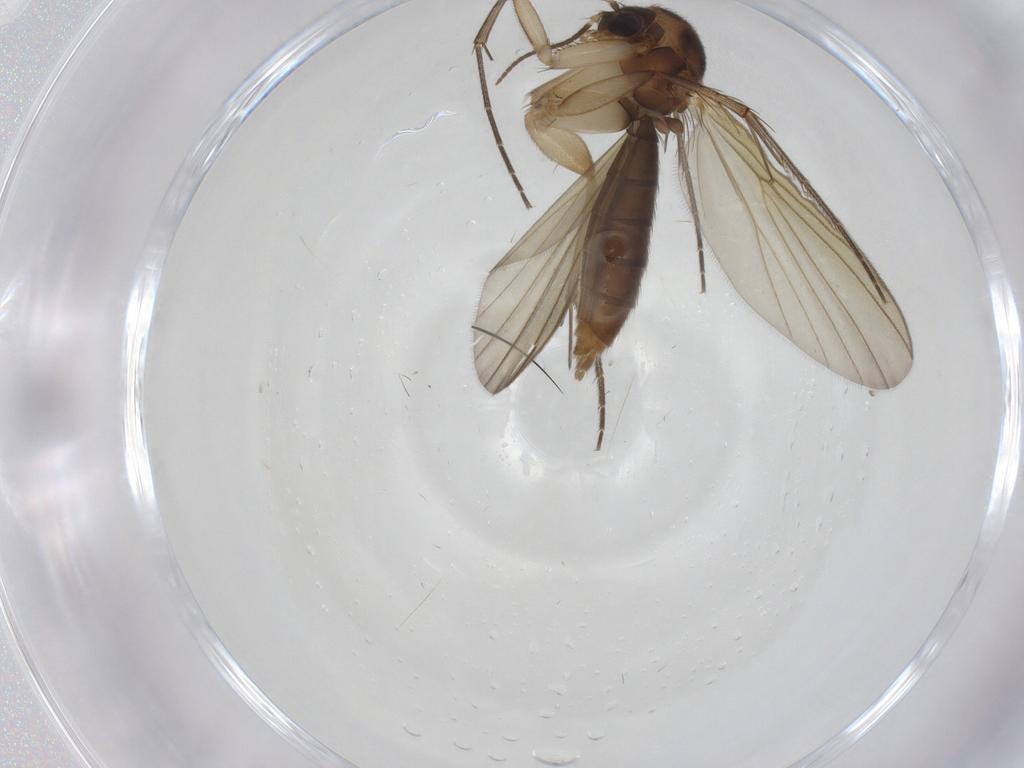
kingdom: Animalia
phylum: Arthropoda
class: Insecta
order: Diptera
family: Mycetophilidae
